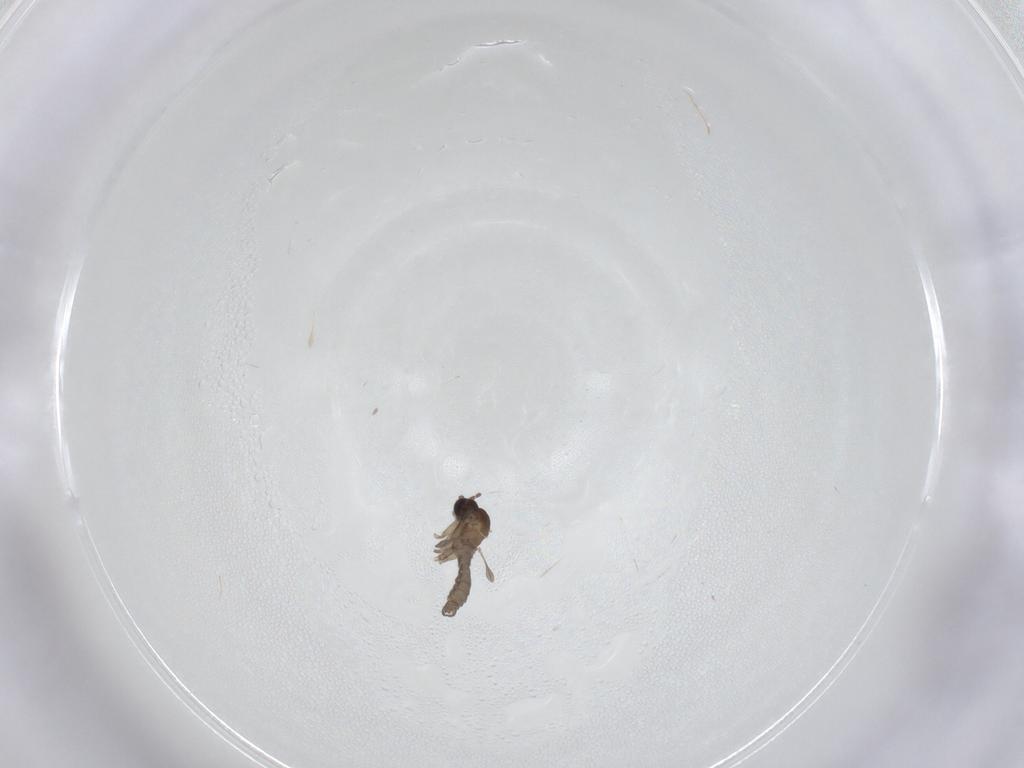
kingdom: Animalia
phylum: Arthropoda
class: Insecta
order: Diptera
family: Sciaridae
